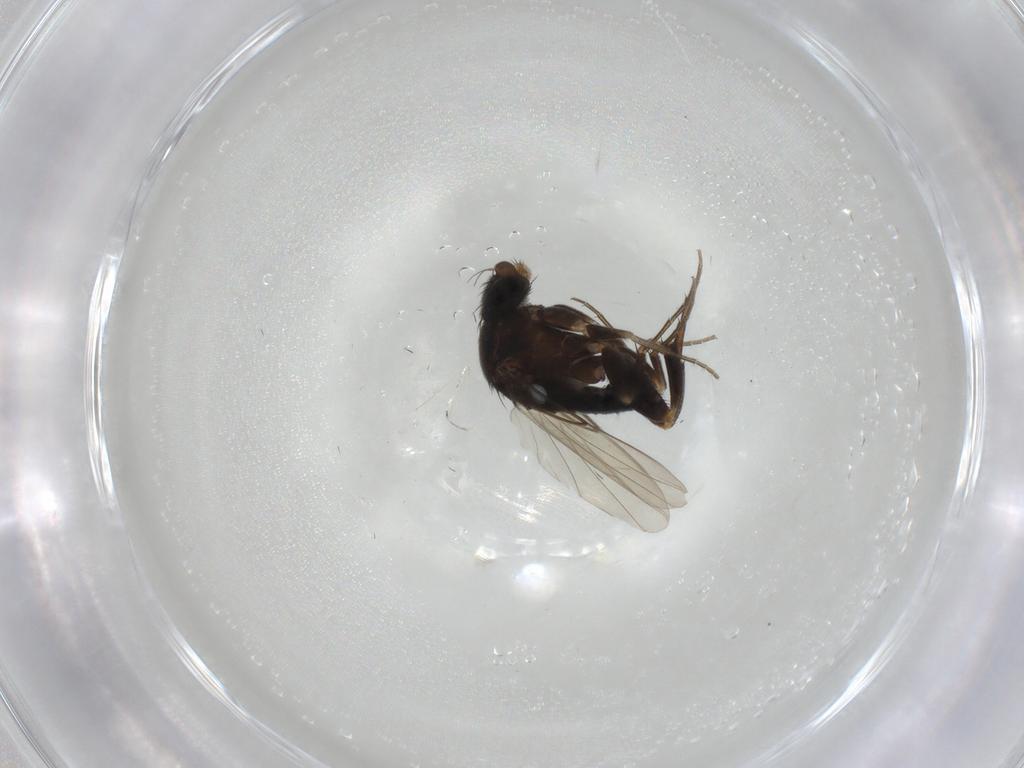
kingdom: Animalia
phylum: Arthropoda
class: Insecta
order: Diptera
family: Phoridae
